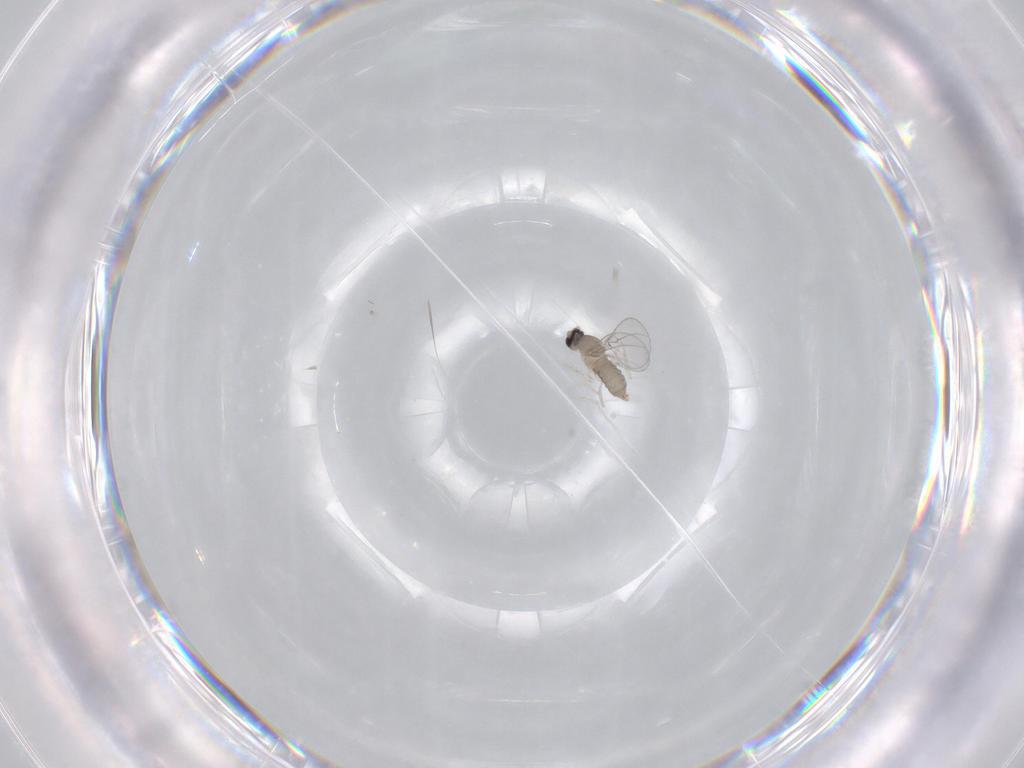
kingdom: Animalia
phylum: Arthropoda
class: Insecta
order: Diptera
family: Cecidomyiidae
